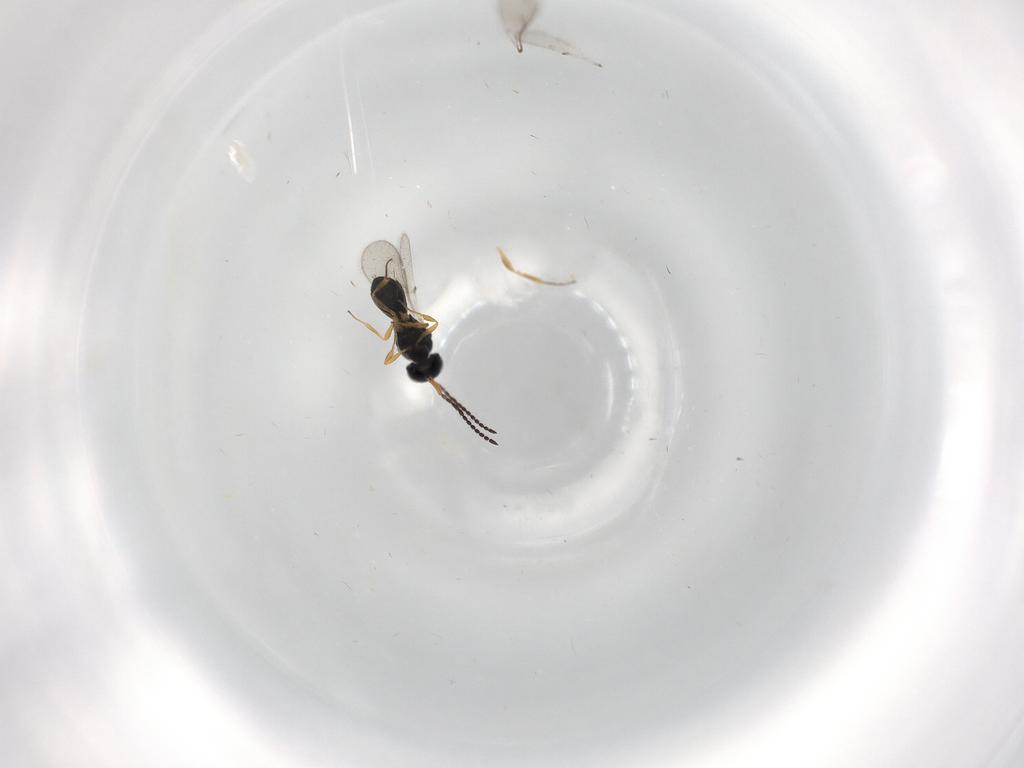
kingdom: Animalia
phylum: Arthropoda
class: Insecta
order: Hymenoptera
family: Scelionidae
